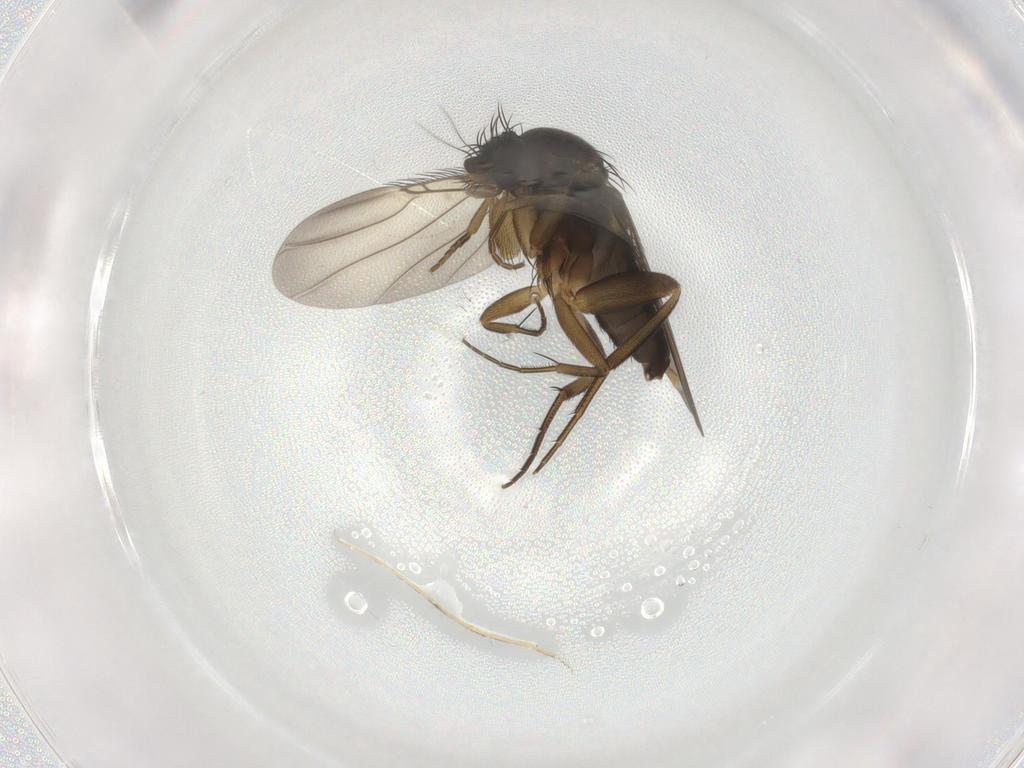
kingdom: Animalia
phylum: Arthropoda
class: Insecta
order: Diptera
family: Phoridae
